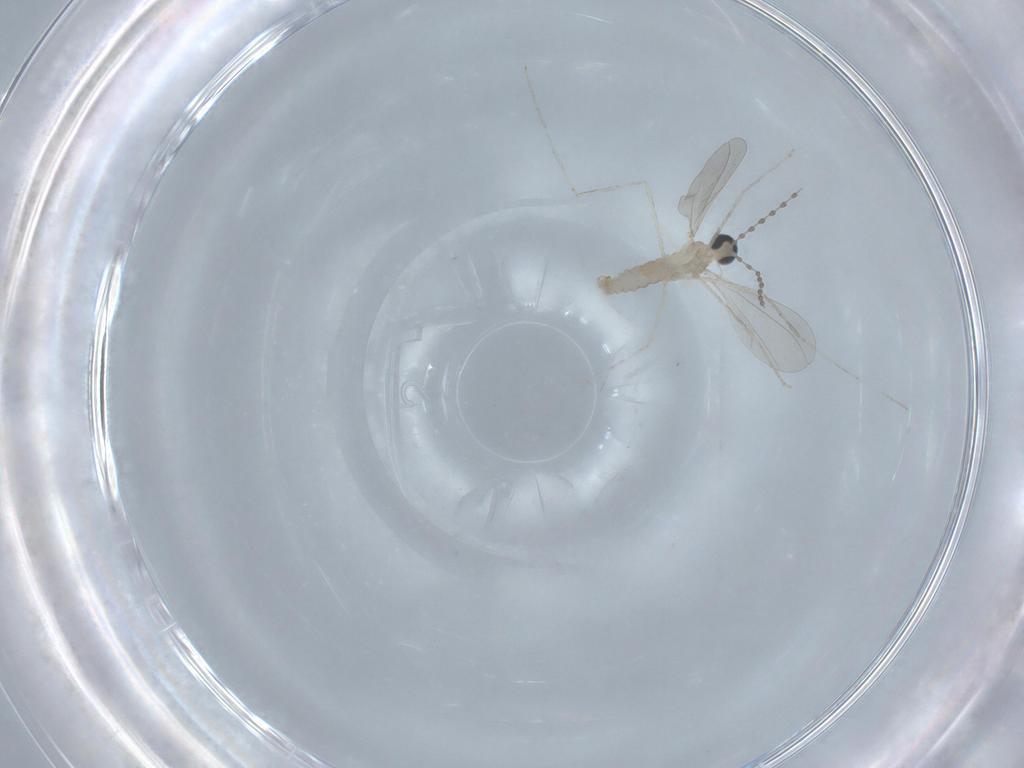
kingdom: Animalia
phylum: Arthropoda
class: Insecta
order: Diptera
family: Cecidomyiidae
